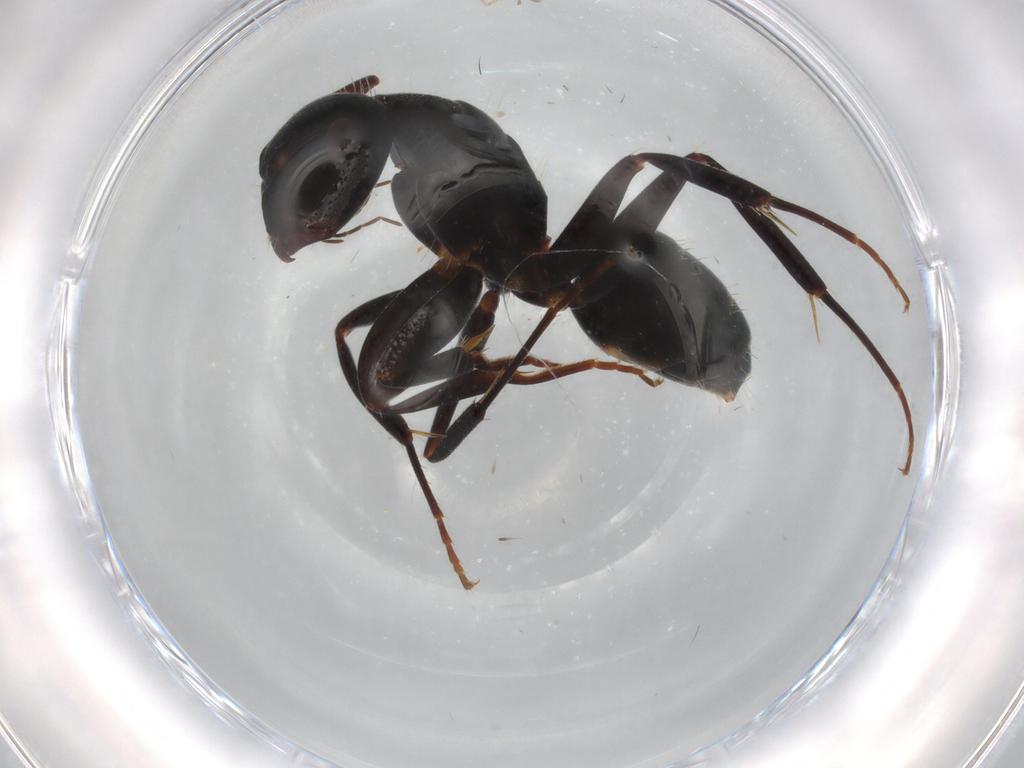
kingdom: Animalia
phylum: Arthropoda
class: Insecta
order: Hymenoptera
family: Formicidae
